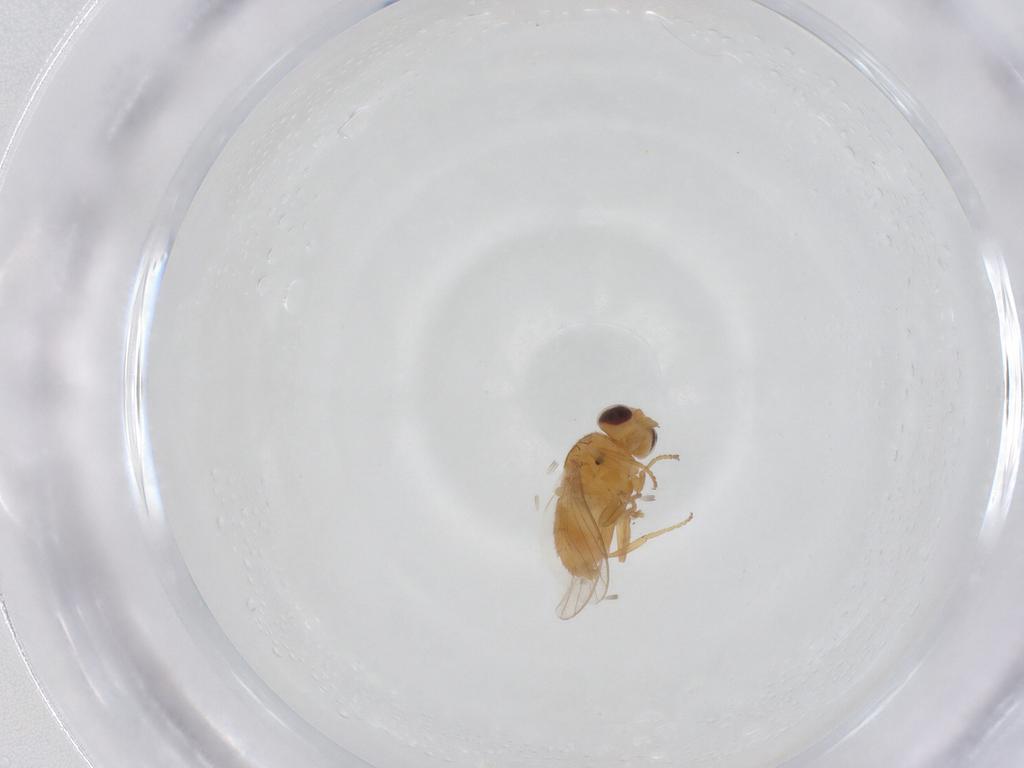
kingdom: Animalia
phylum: Arthropoda
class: Insecta
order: Diptera
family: Chloropidae
